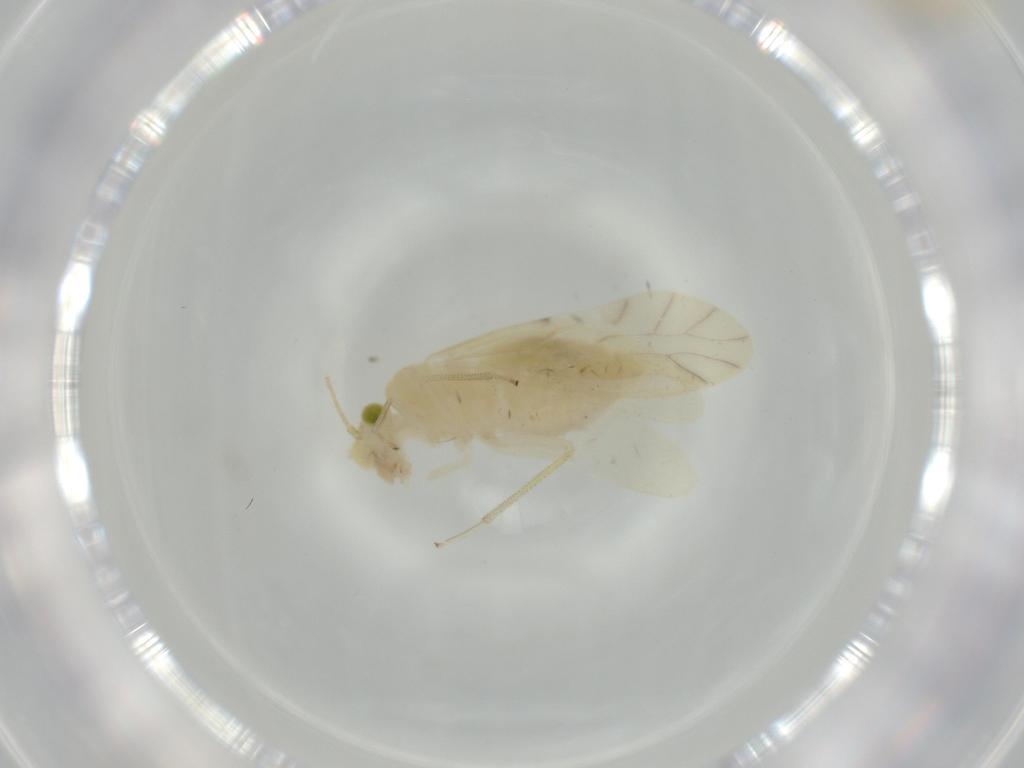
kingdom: Animalia
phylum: Arthropoda
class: Insecta
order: Psocodea
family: Caeciliusidae
